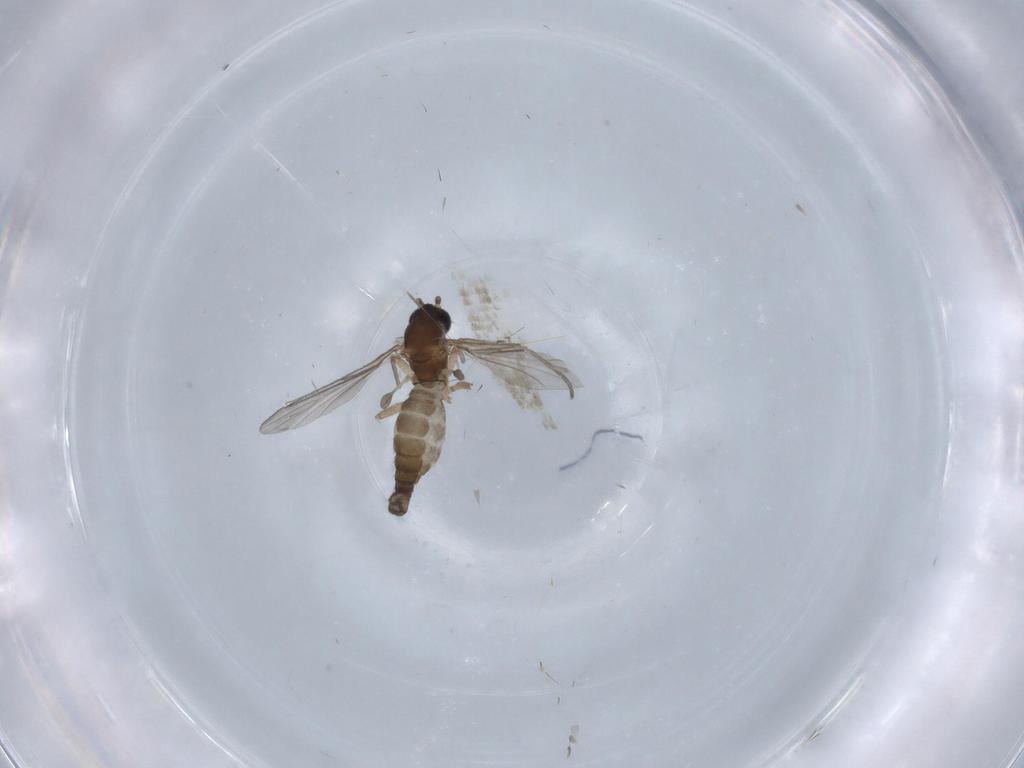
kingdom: Animalia
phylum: Arthropoda
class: Insecta
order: Diptera
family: Sciaridae
